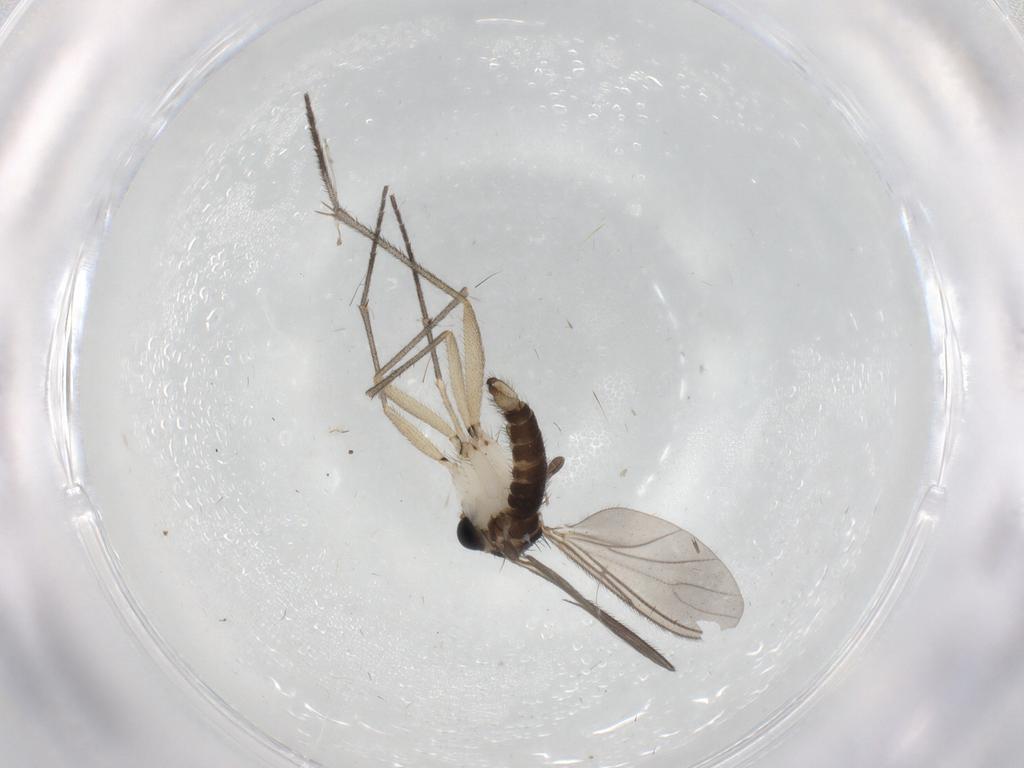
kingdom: Animalia
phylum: Arthropoda
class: Insecta
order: Diptera
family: Sciaridae
